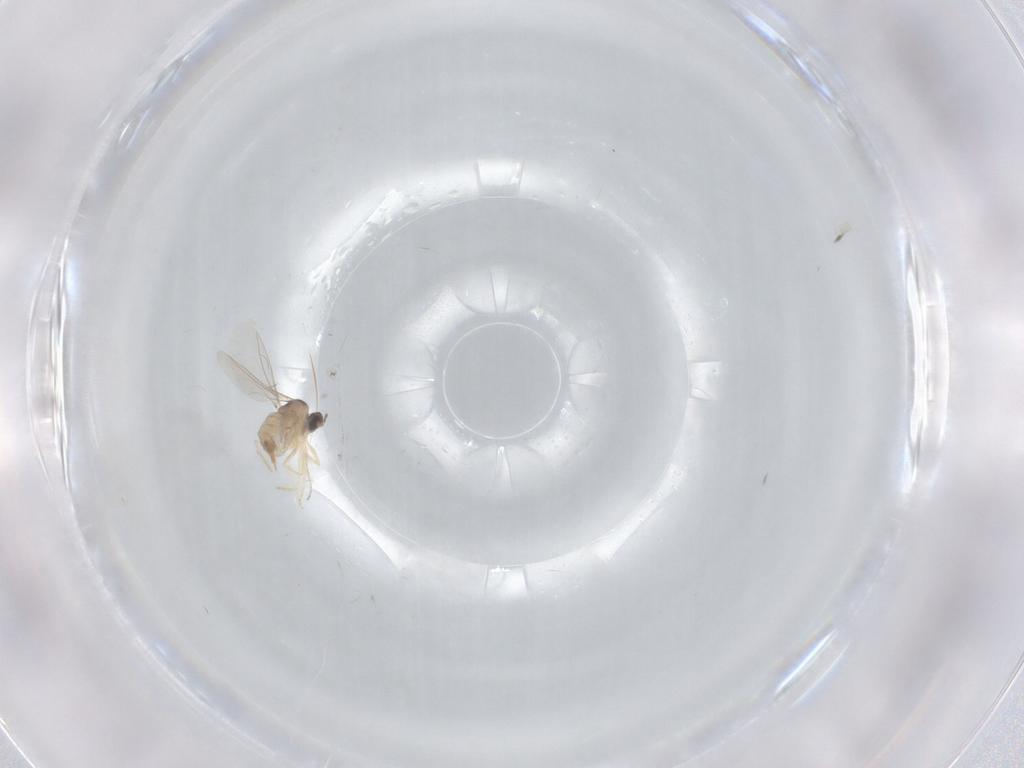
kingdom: Animalia
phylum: Arthropoda
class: Insecta
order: Diptera
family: Cecidomyiidae
